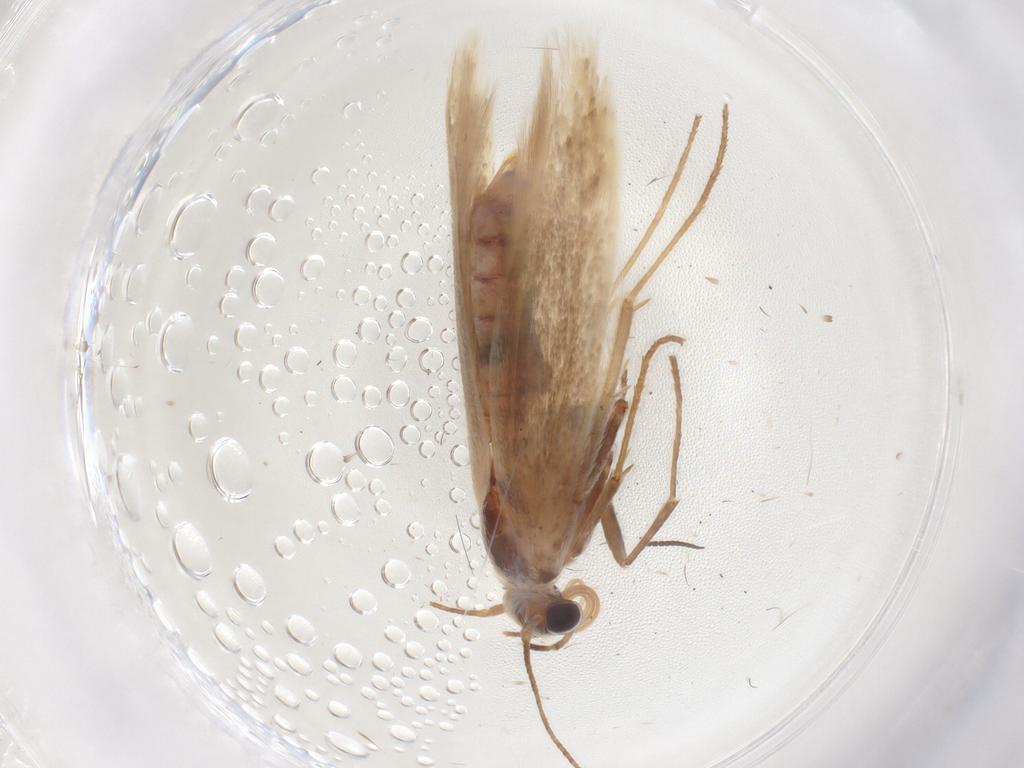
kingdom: Animalia
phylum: Arthropoda
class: Insecta
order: Lepidoptera
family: Scythrididae
